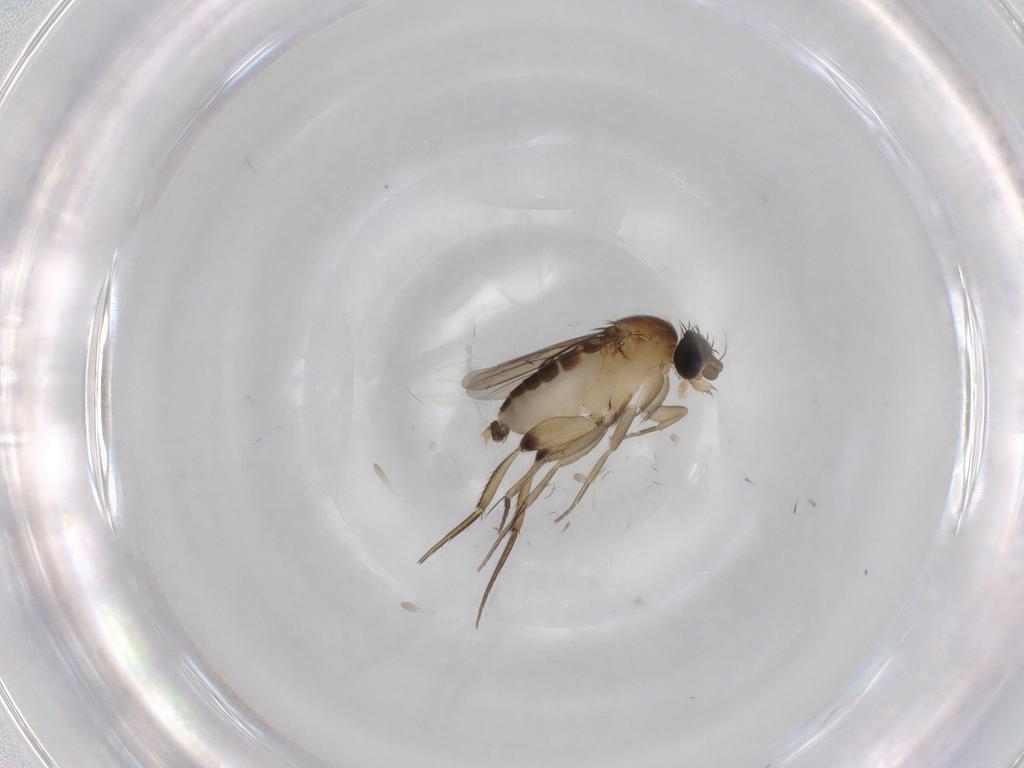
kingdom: Animalia
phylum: Arthropoda
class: Insecta
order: Diptera
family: Phoridae
